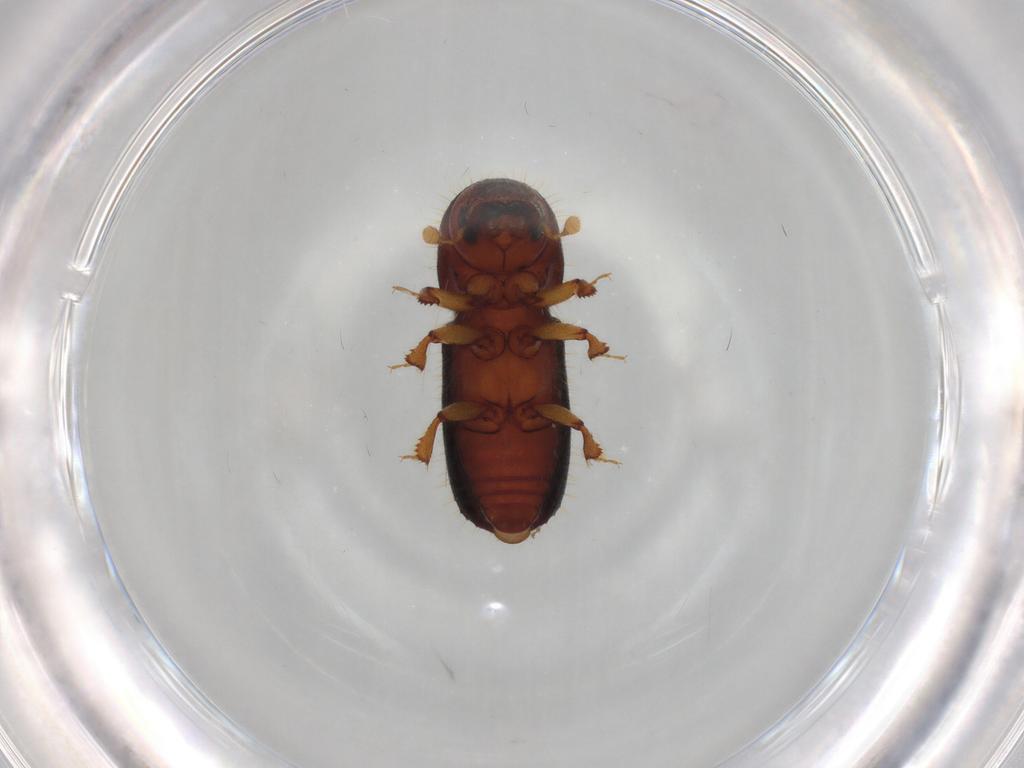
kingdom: Animalia
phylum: Arthropoda
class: Insecta
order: Coleoptera
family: Curculionidae
